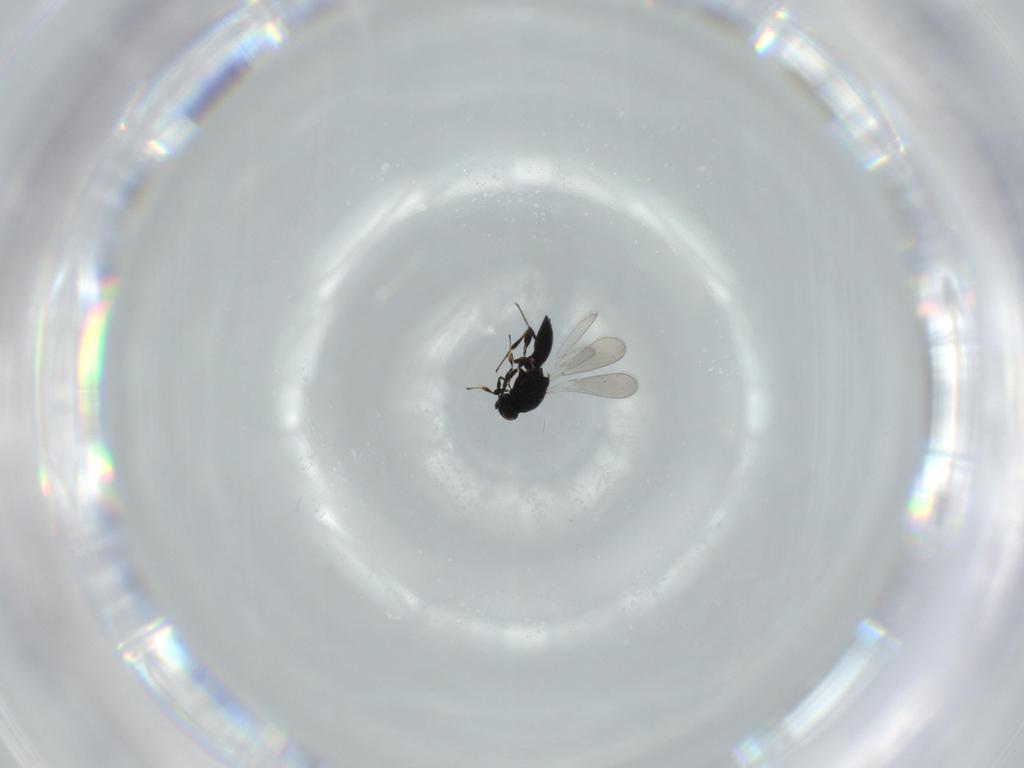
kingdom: Animalia
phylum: Arthropoda
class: Insecta
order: Hymenoptera
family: Platygastridae
